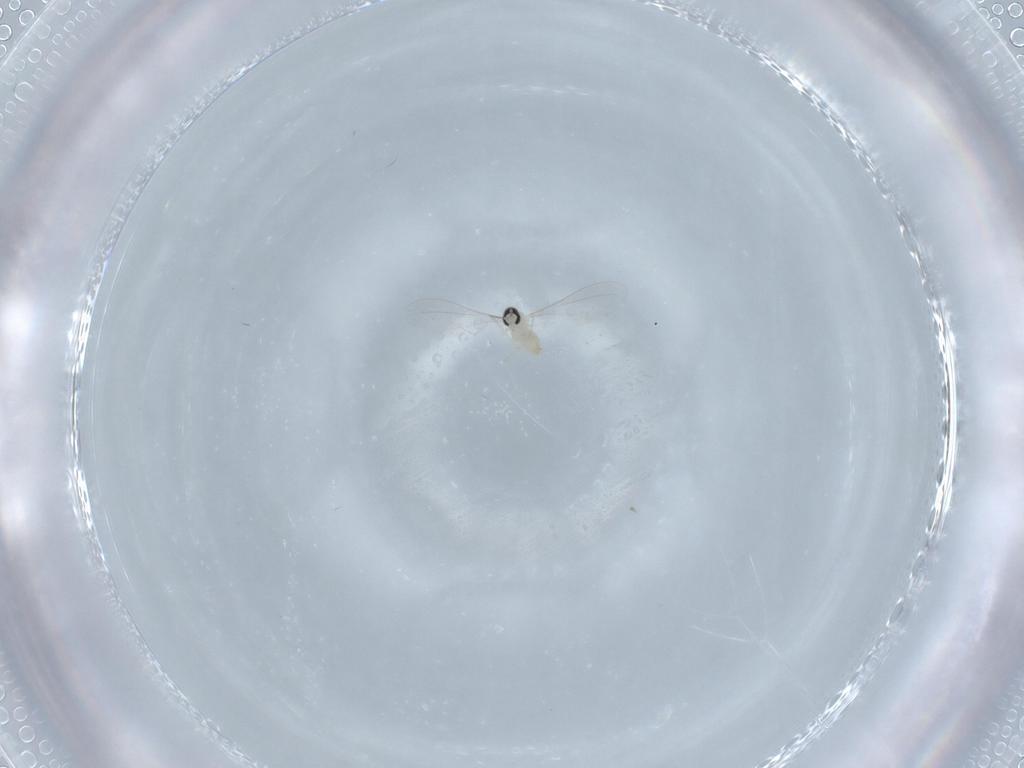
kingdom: Animalia
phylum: Arthropoda
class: Insecta
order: Diptera
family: Cecidomyiidae
